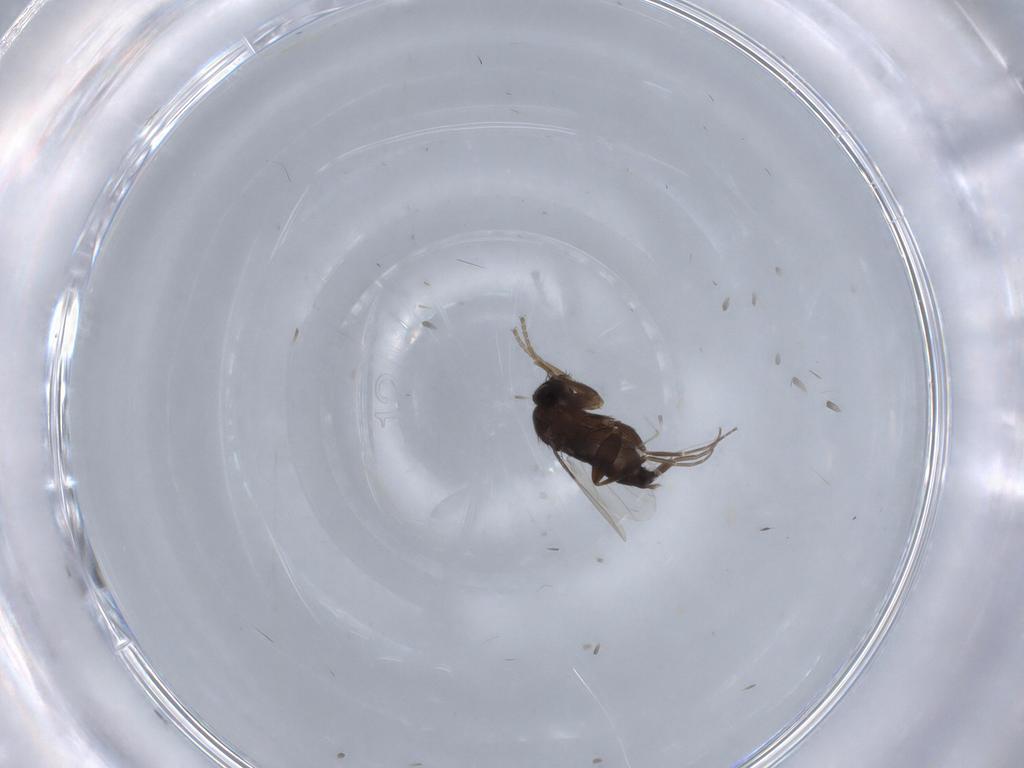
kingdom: Animalia
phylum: Arthropoda
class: Insecta
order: Diptera
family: Phoridae
